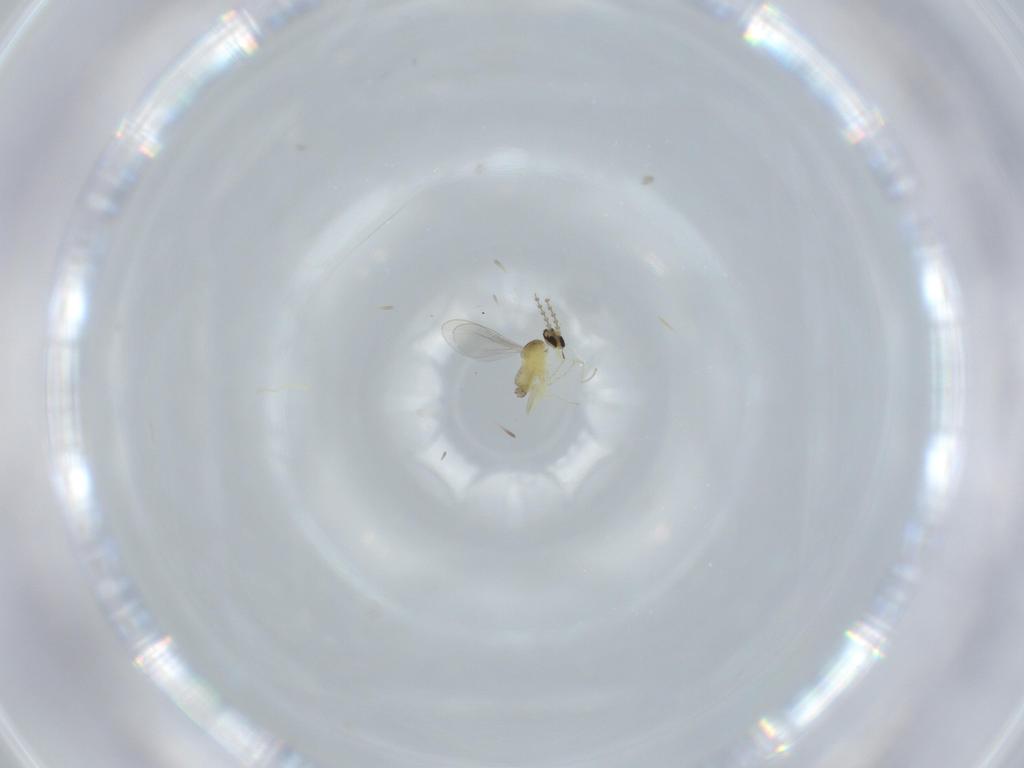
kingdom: Animalia
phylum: Arthropoda
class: Insecta
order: Diptera
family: Cecidomyiidae
